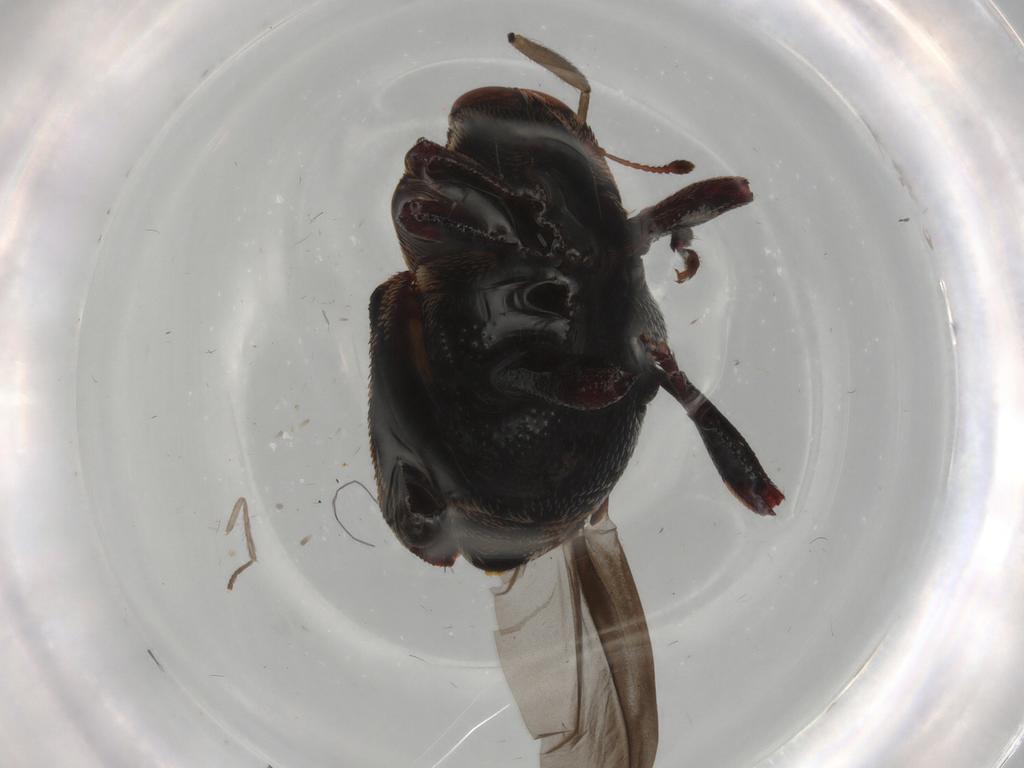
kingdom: Animalia
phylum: Arthropoda
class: Insecta
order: Coleoptera
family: Curculionidae
